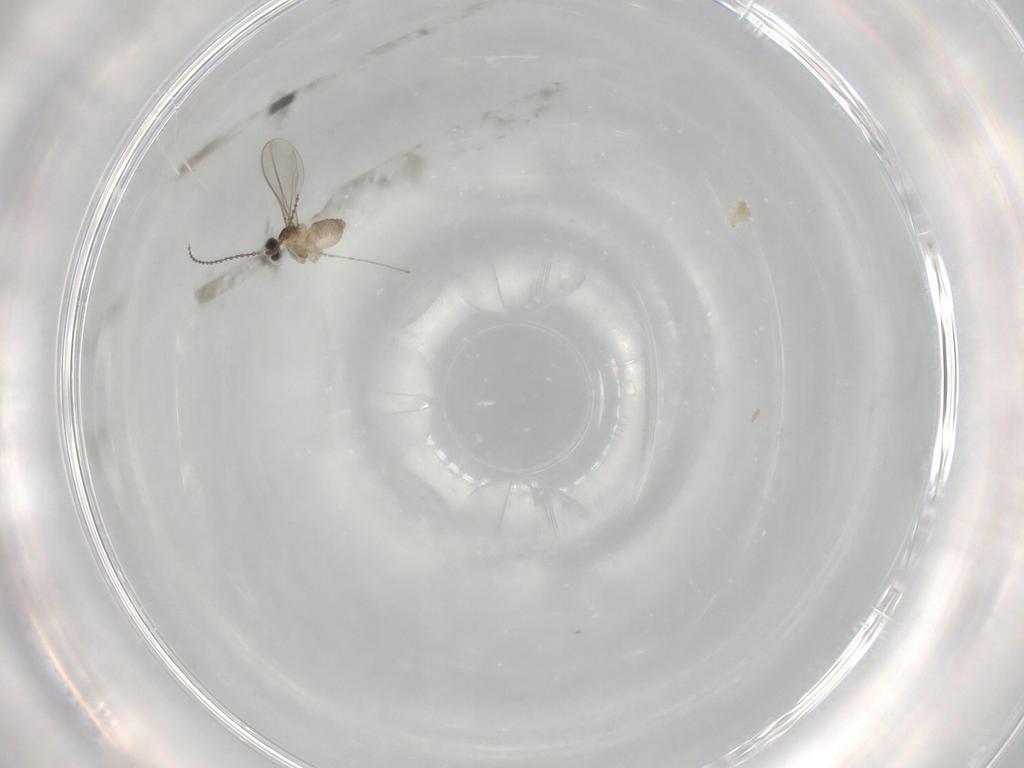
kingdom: Animalia
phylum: Arthropoda
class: Insecta
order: Diptera
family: Cecidomyiidae
